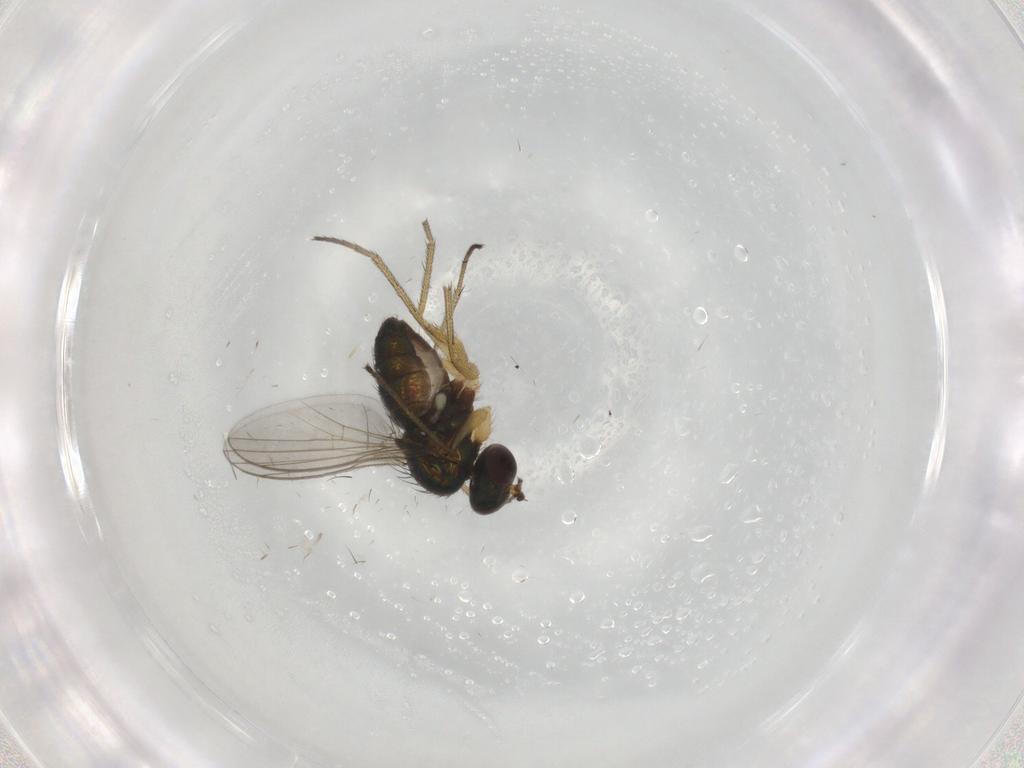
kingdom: Animalia
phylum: Arthropoda
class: Insecta
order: Diptera
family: Dolichopodidae
